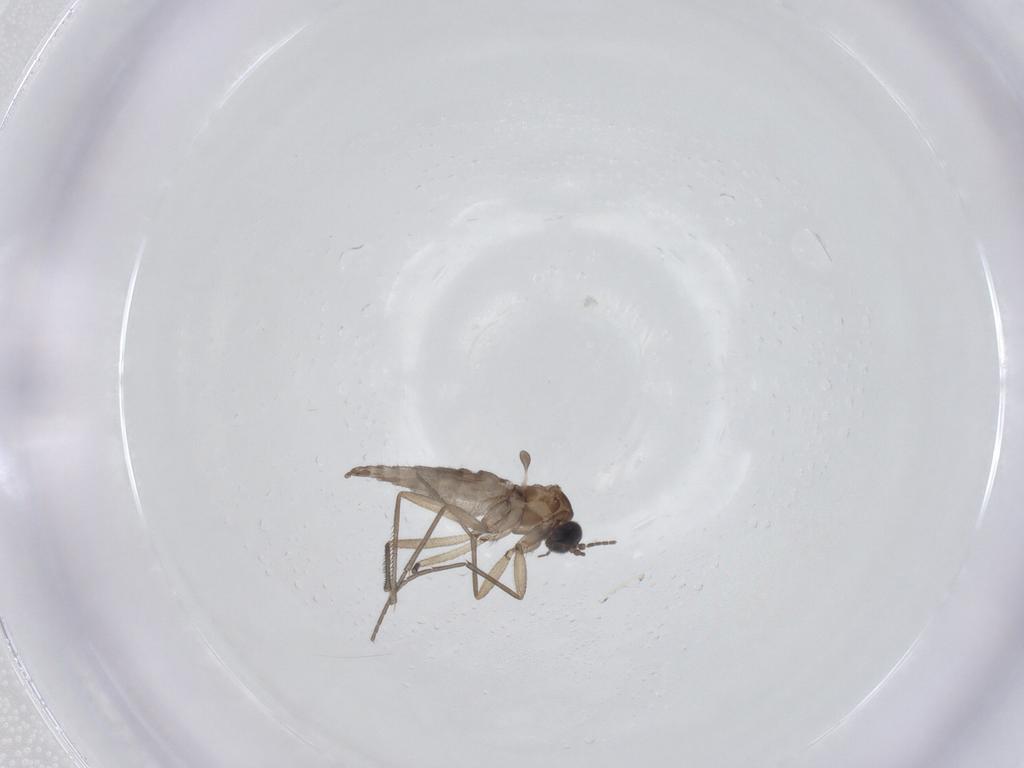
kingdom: Animalia
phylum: Arthropoda
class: Insecta
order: Diptera
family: Sciaridae
